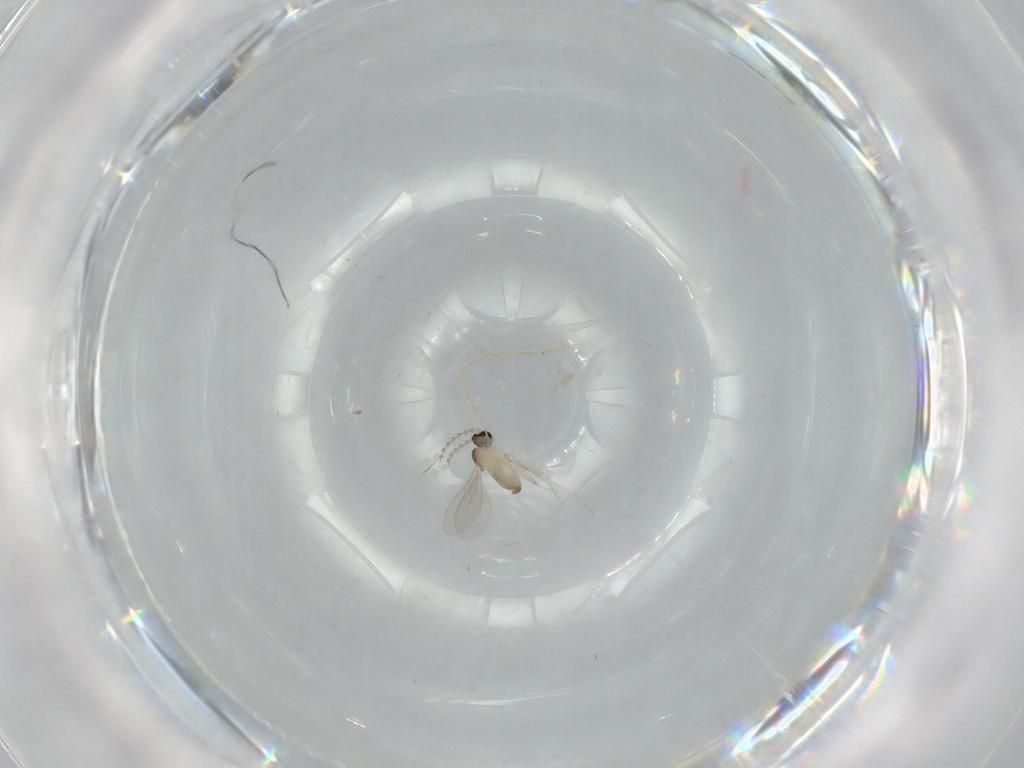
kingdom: Animalia
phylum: Arthropoda
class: Insecta
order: Diptera
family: Cecidomyiidae
